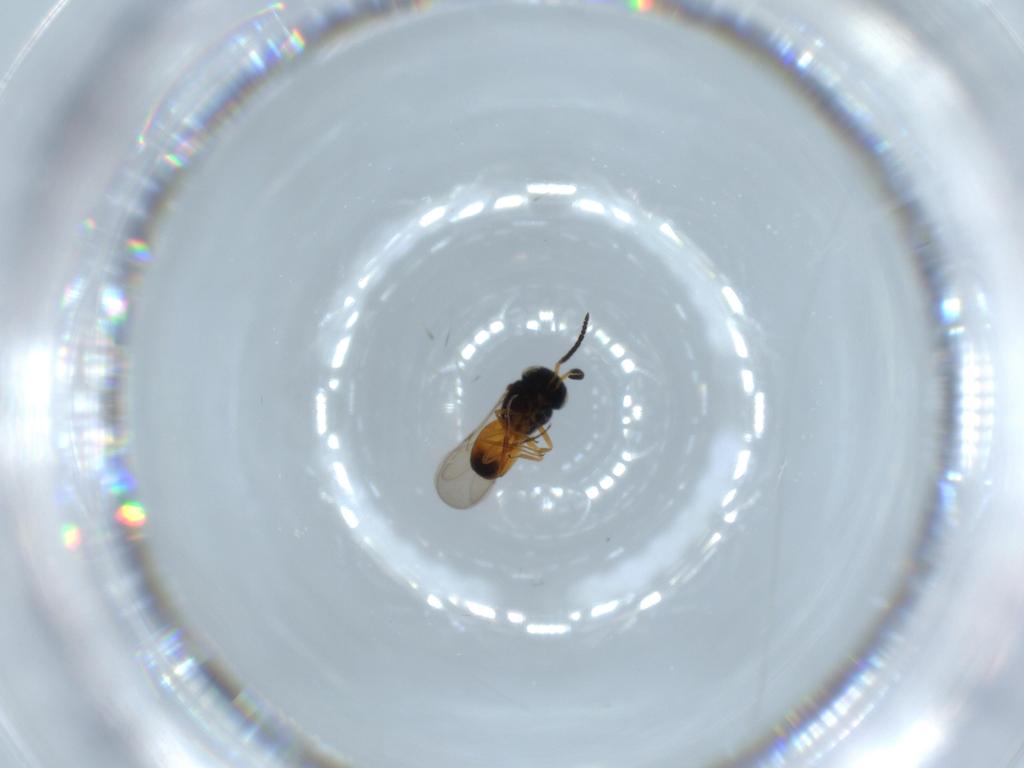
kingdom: Animalia
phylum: Arthropoda
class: Insecta
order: Hymenoptera
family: Scelionidae
